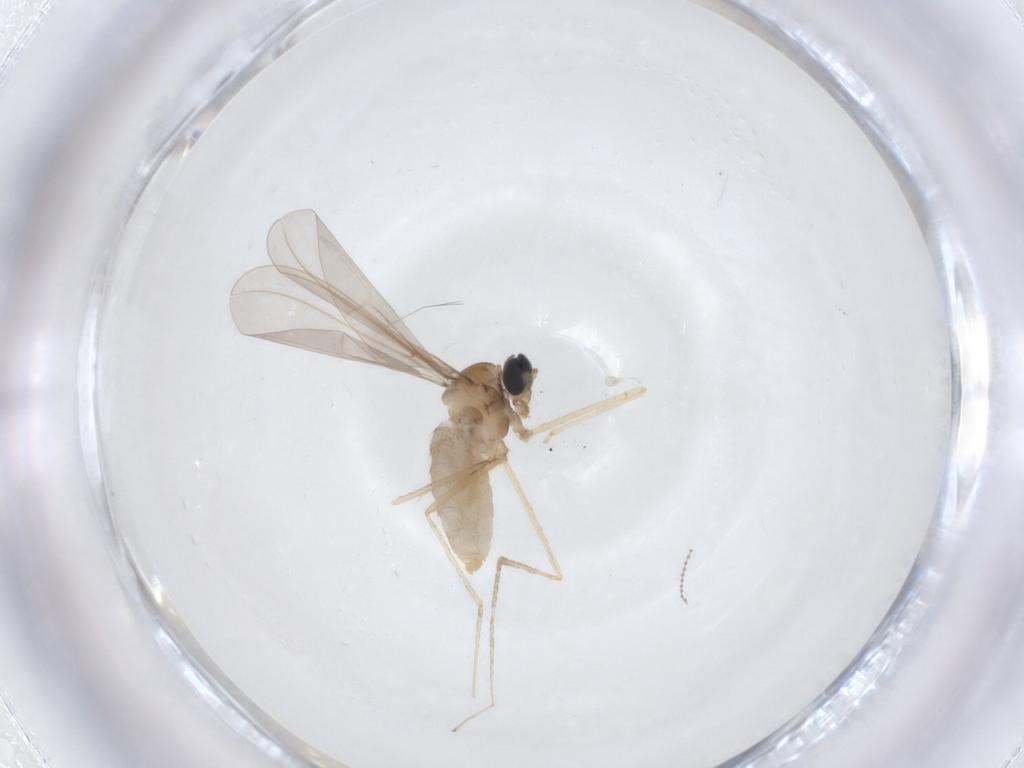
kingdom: Animalia
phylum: Arthropoda
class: Insecta
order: Diptera
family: Cecidomyiidae
